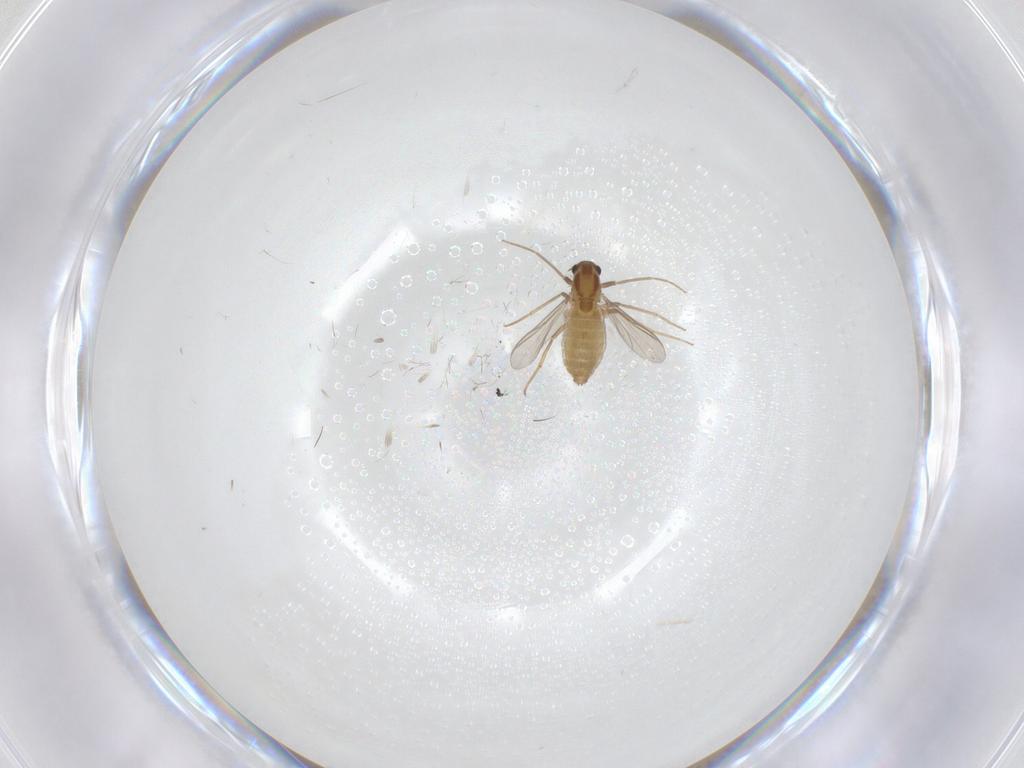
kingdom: Animalia
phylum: Arthropoda
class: Insecta
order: Diptera
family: Chironomidae
